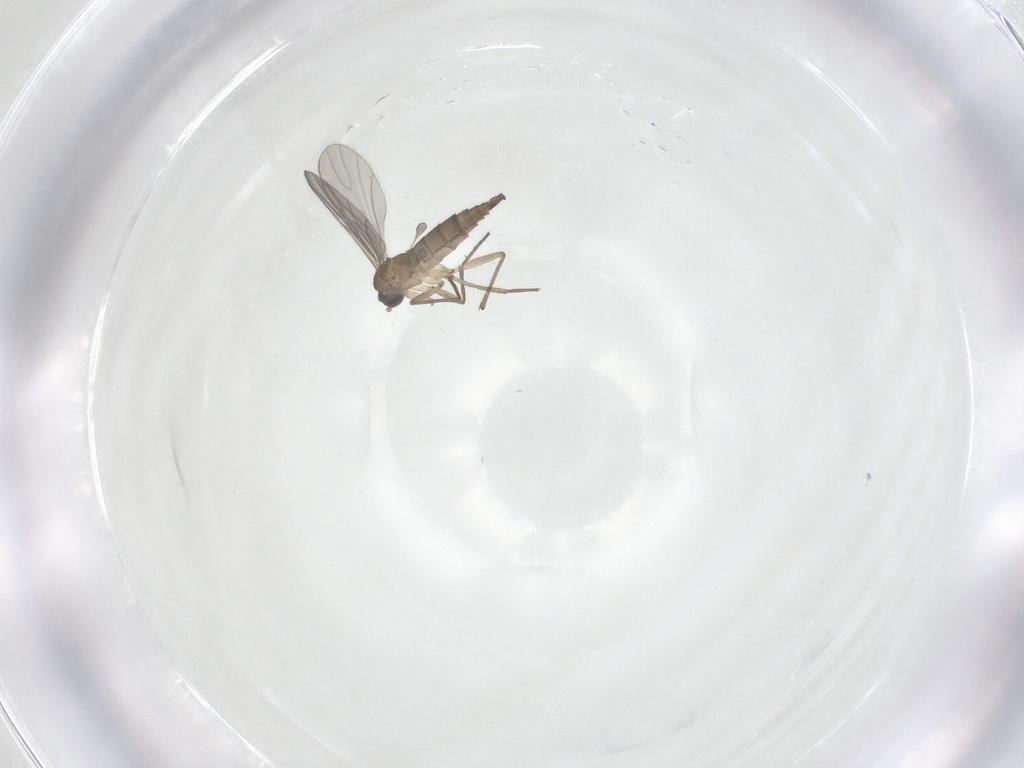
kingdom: Animalia
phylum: Arthropoda
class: Insecta
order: Diptera
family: Sciaridae
